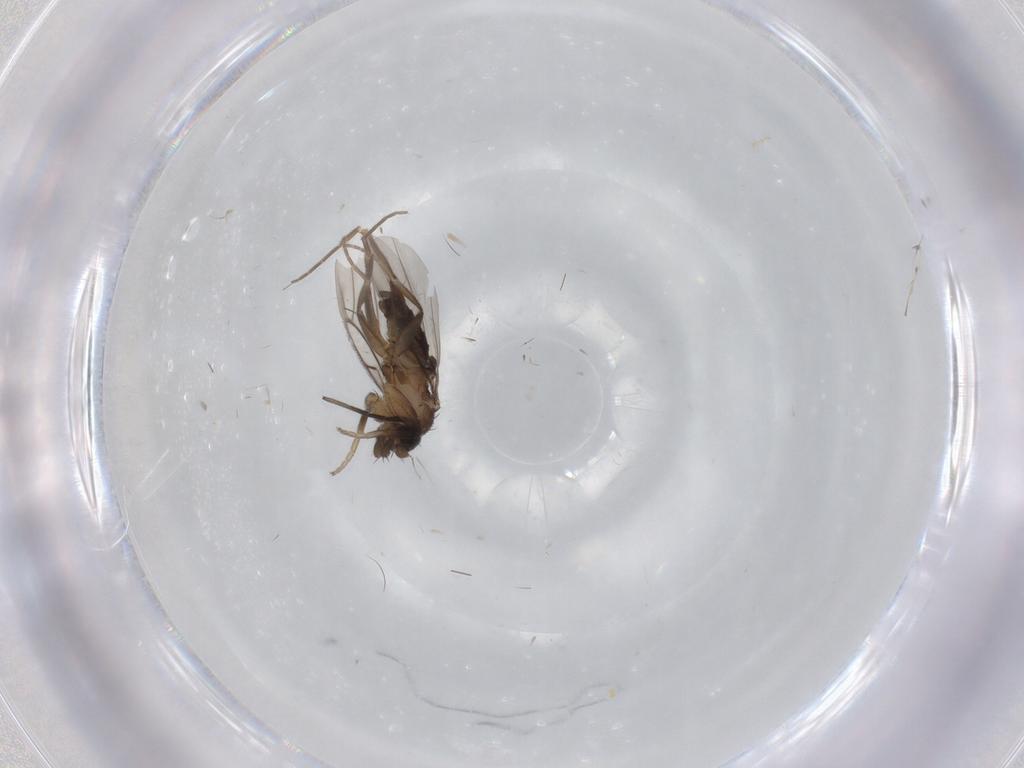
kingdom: Animalia
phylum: Arthropoda
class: Insecta
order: Diptera
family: Phoridae
